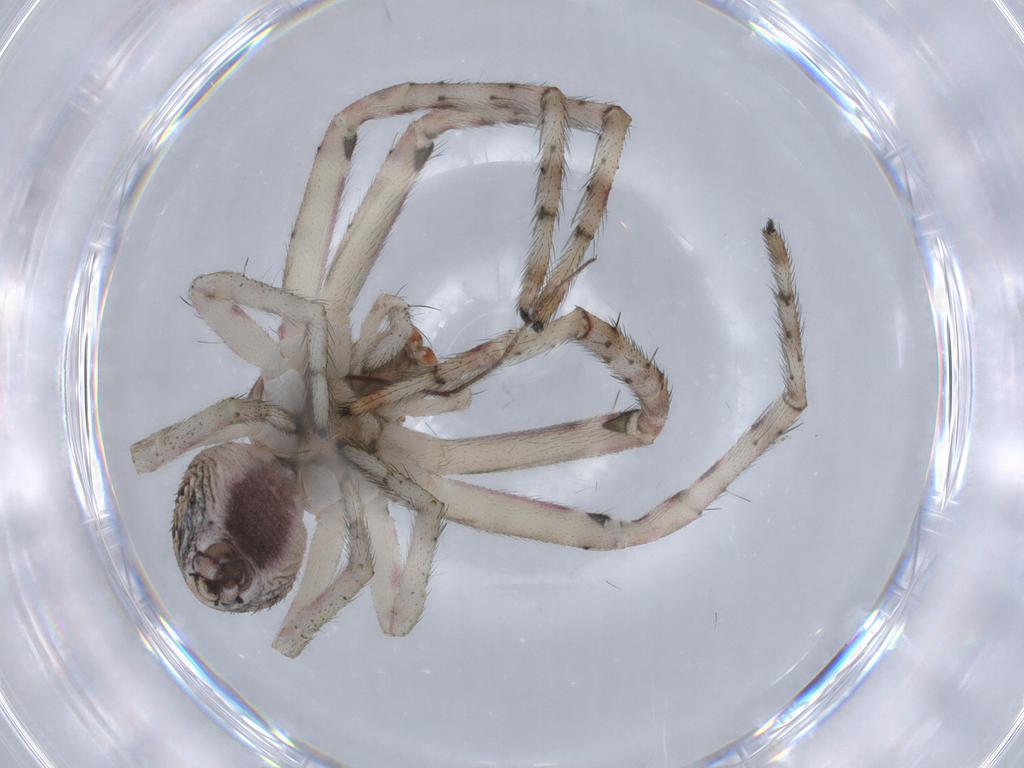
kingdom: Animalia
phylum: Arthropoda
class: Arachnida
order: Araneae
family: Thomisidae
